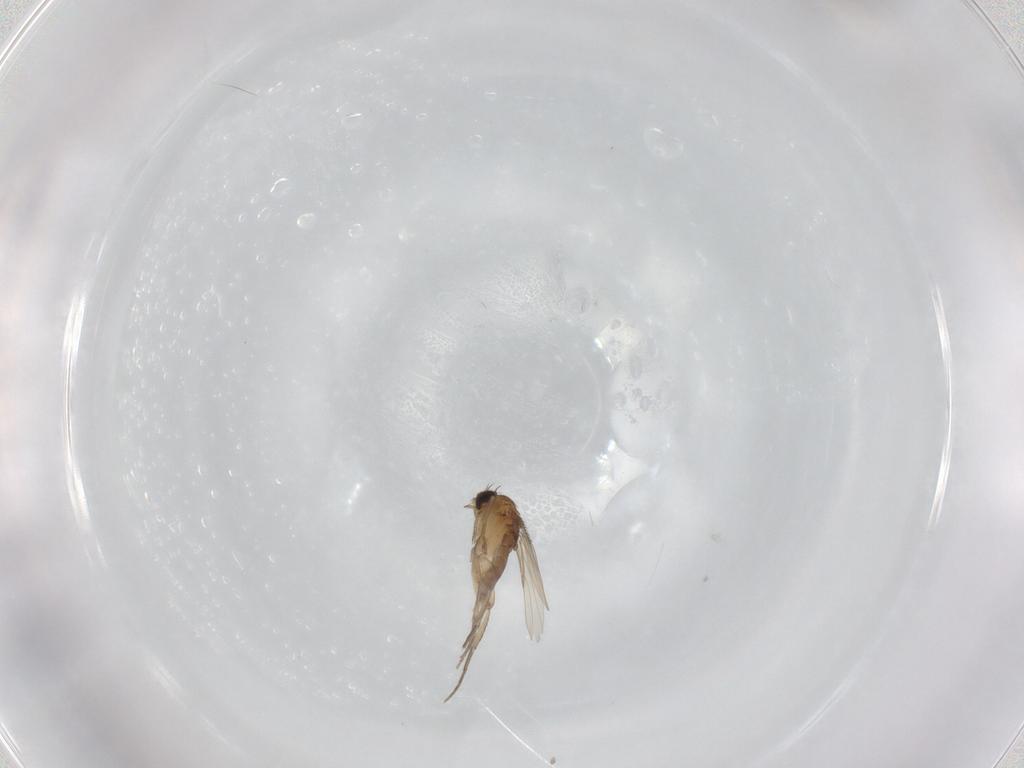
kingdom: Animalia
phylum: Arthropoda
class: Insecta
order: Diptera
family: Phoridae
